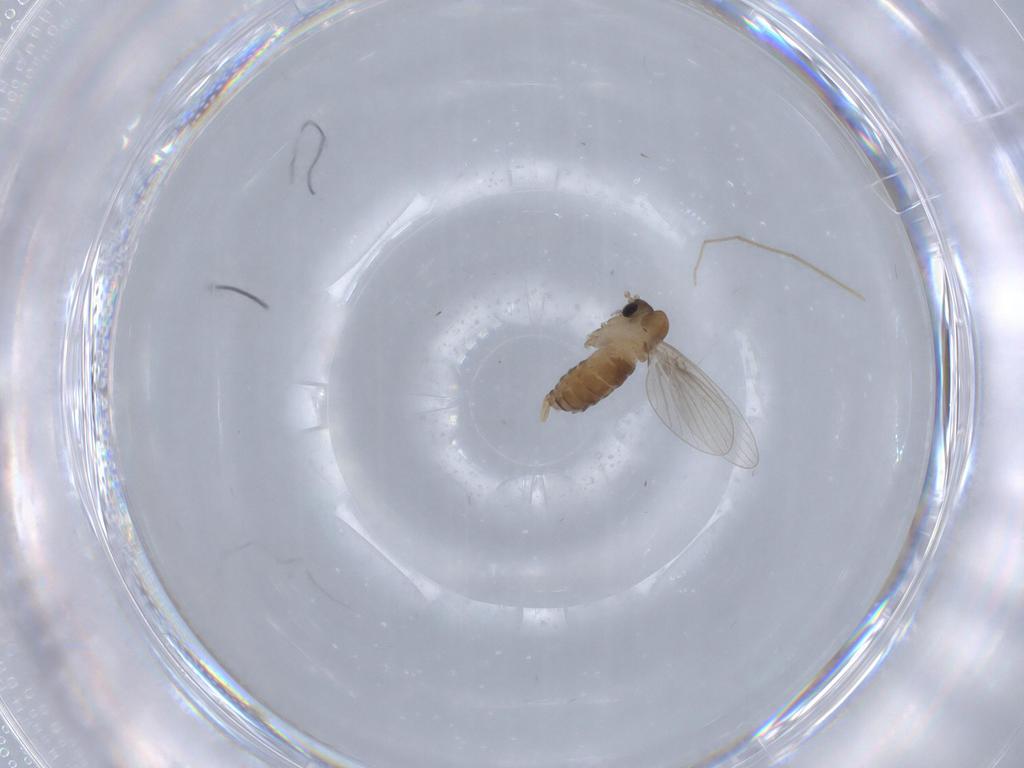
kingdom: Animalia
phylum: Arthropoda
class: Insecta
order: Diptera
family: Psychodidae
